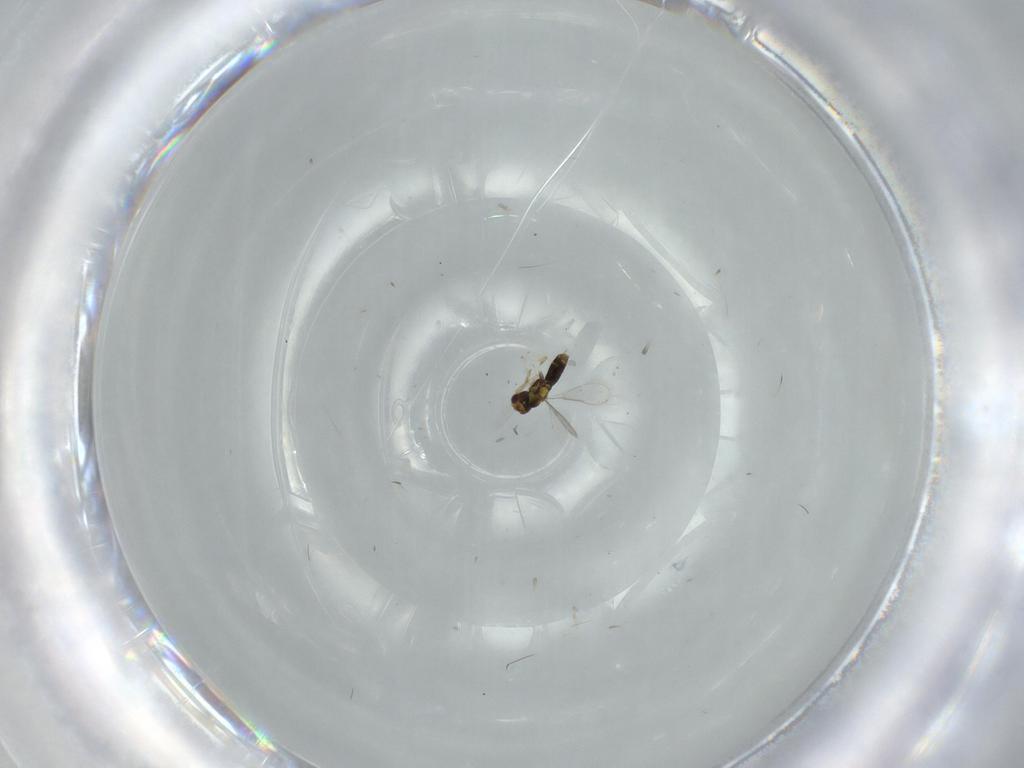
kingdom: Animalia
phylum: Arthropoda
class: Insecta
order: Hymenoptera
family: Aphelinidae
